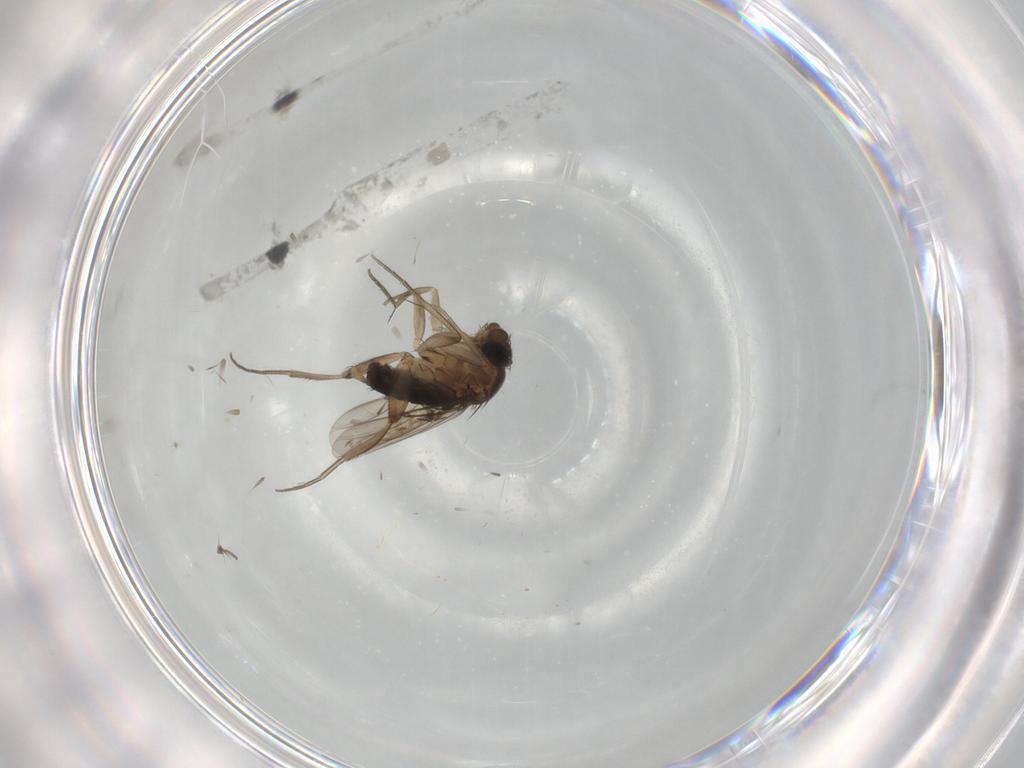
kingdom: Animalia
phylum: Arthropoda
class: Insecta
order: Diptera
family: Phoridae
